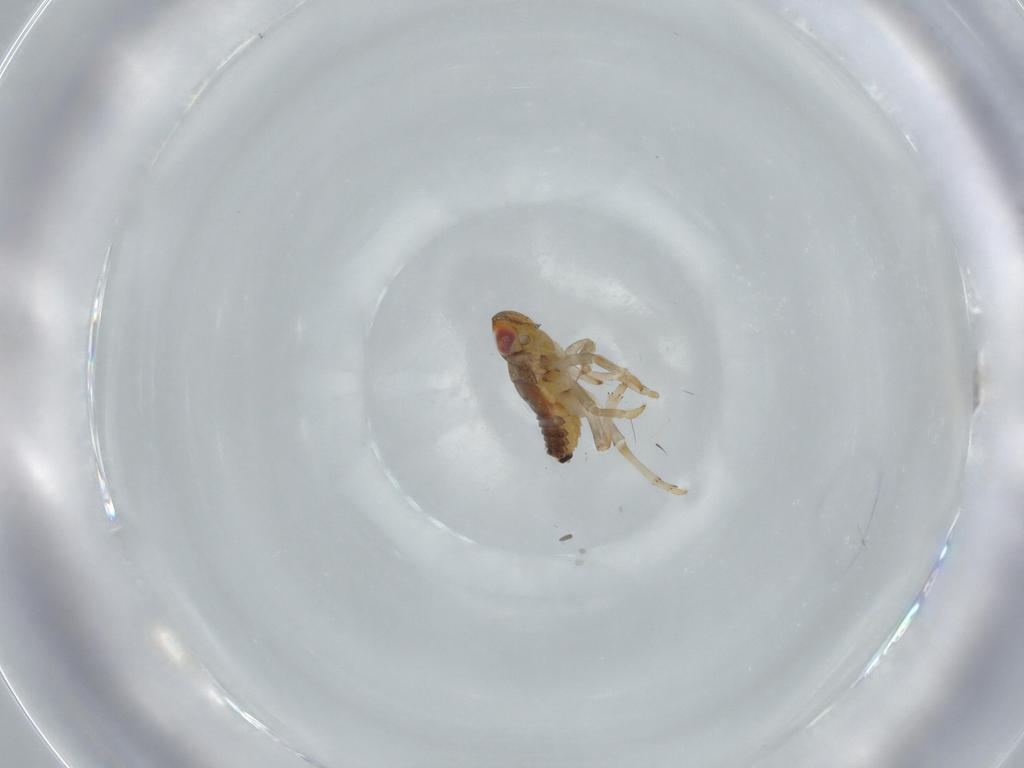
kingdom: Animalia
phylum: Arthropoda
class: Insecta
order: Hemiptera
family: Issidae
